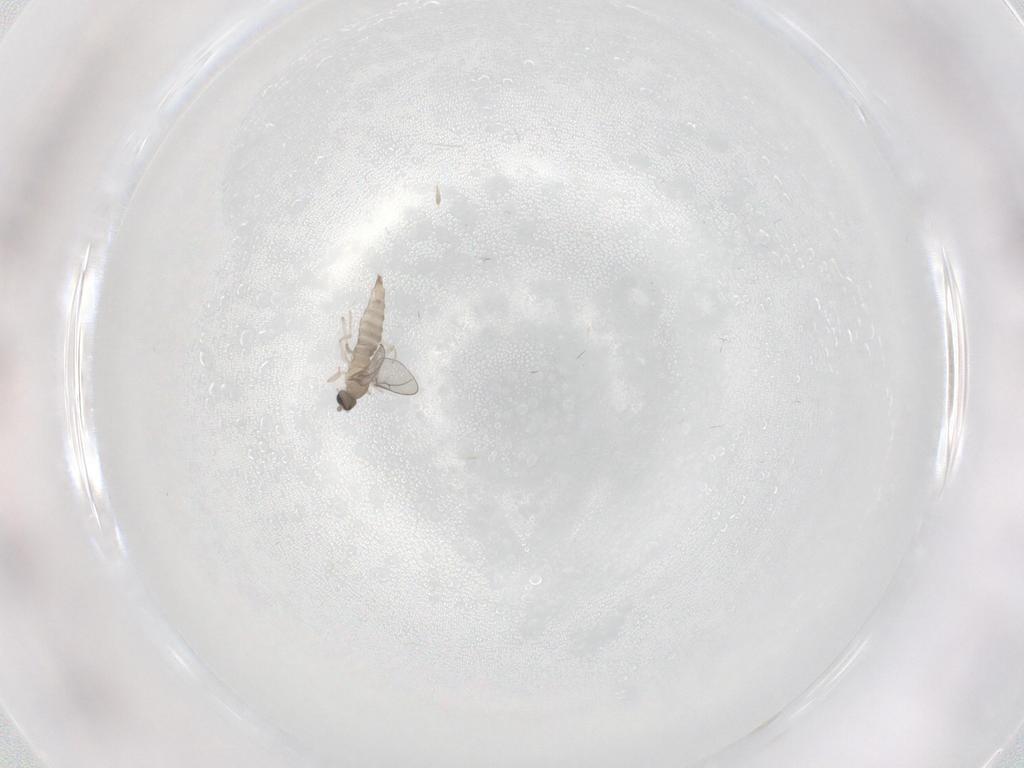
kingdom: Animalia
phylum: Arthropoda
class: Insecta
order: Diptera
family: Cecidomyiidae
